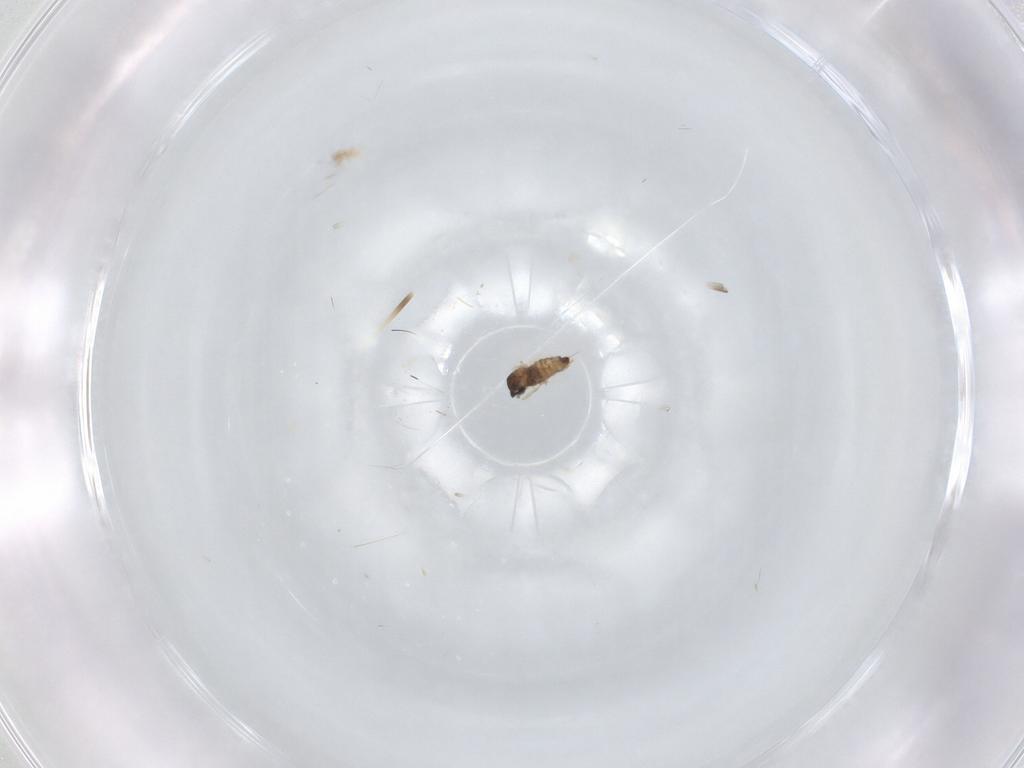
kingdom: Animalia
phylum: Arthropoda
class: Insecta
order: Diptera
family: Cecidomyiidae
